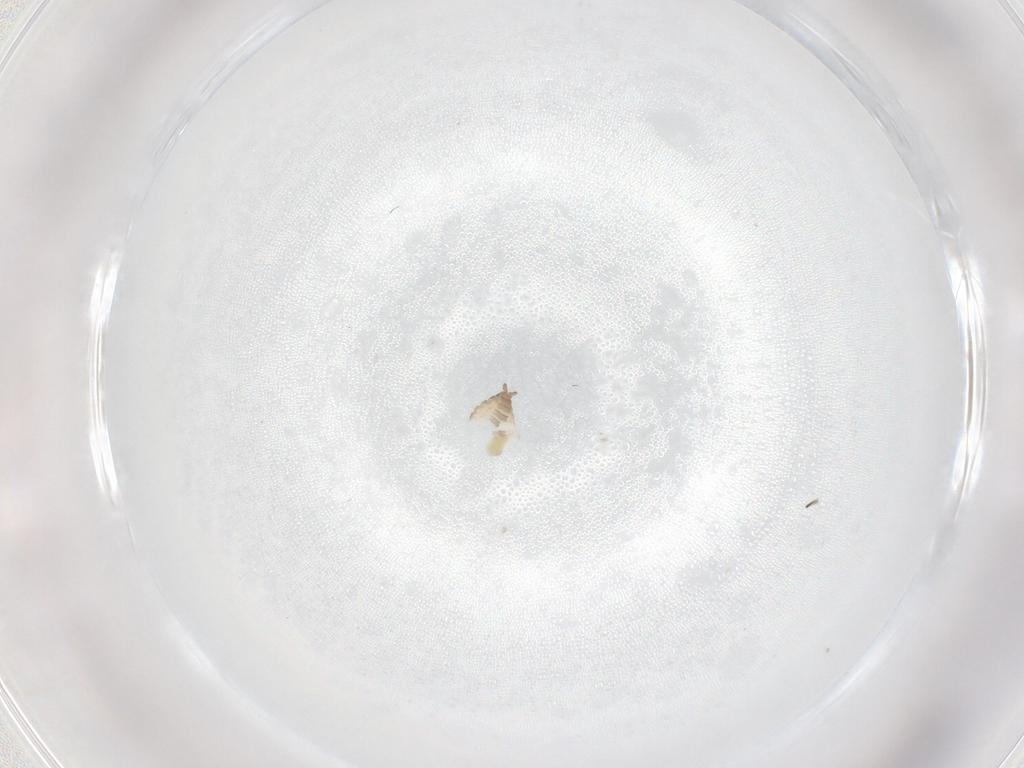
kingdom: Animalia
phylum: Arthropoda
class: Insecta
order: Diptera
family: Cecidomyiidae
